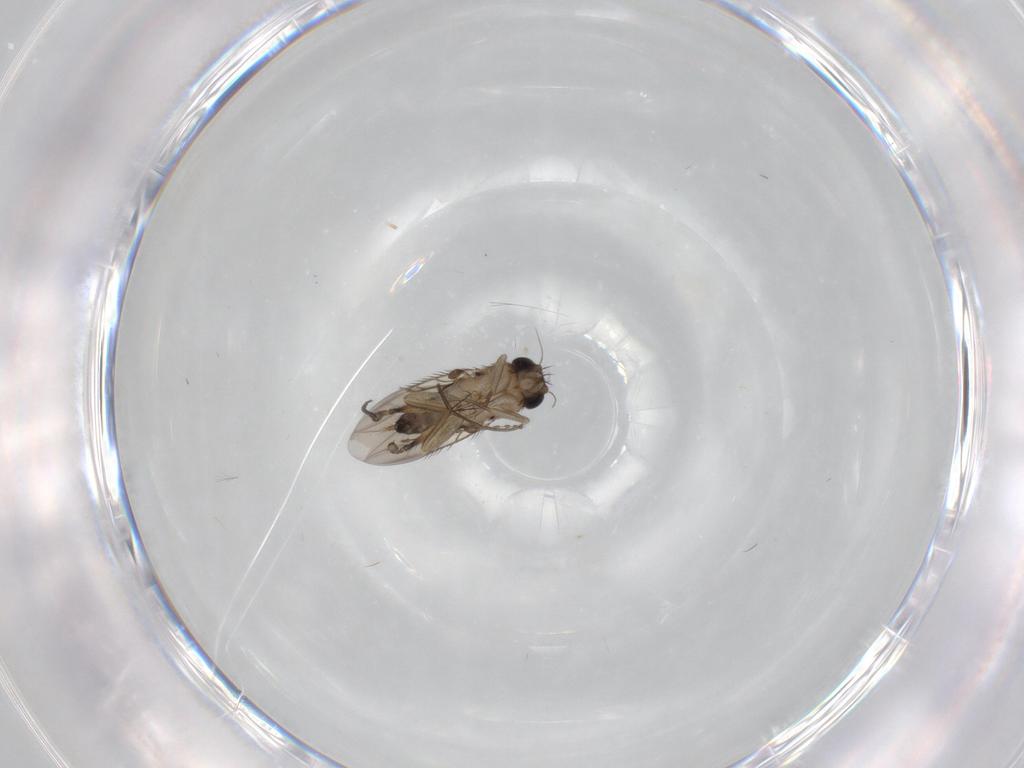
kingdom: Animalia
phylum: Arthropoda
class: Insecta
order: Diptera
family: Phoridae
